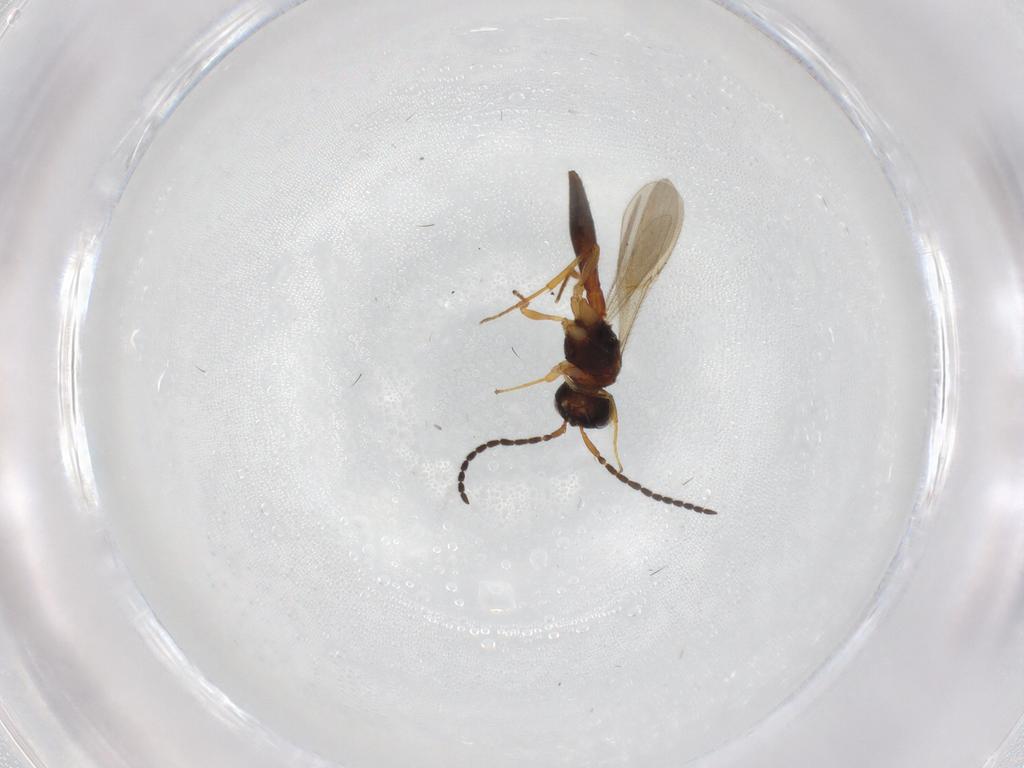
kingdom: Animalia
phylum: Arthropoda
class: Insecta
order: Hymenoptera
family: Scelionidae
